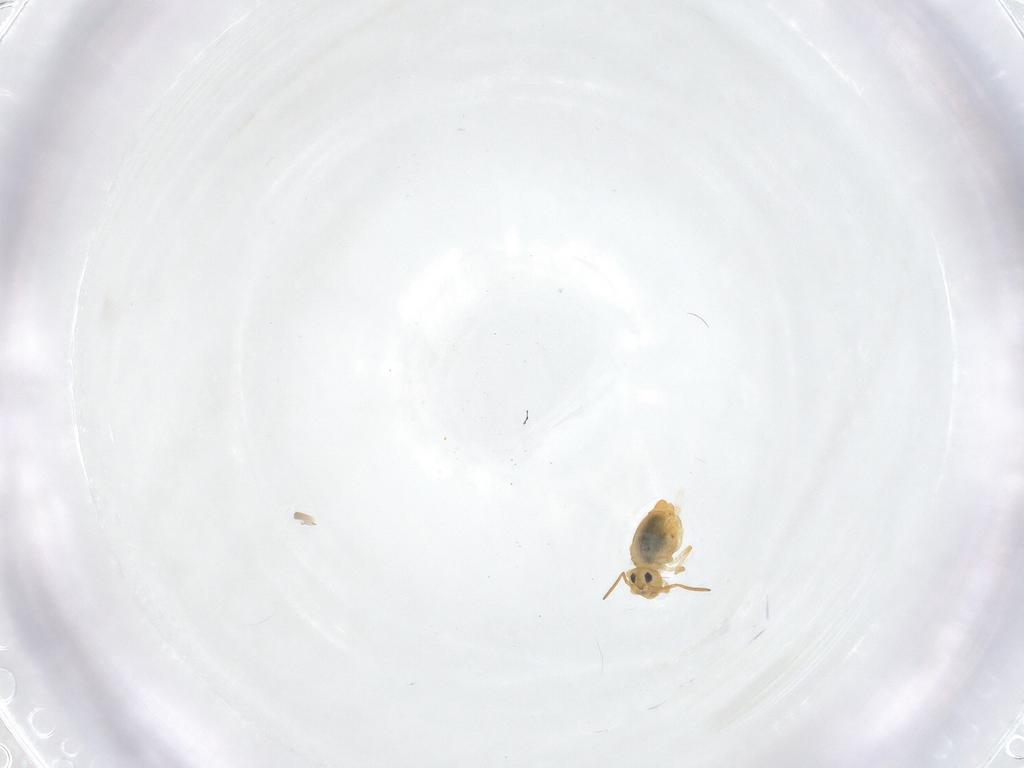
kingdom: Animalia
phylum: Arthropoda
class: Collembola
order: Symphypleona
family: Katiannidae
